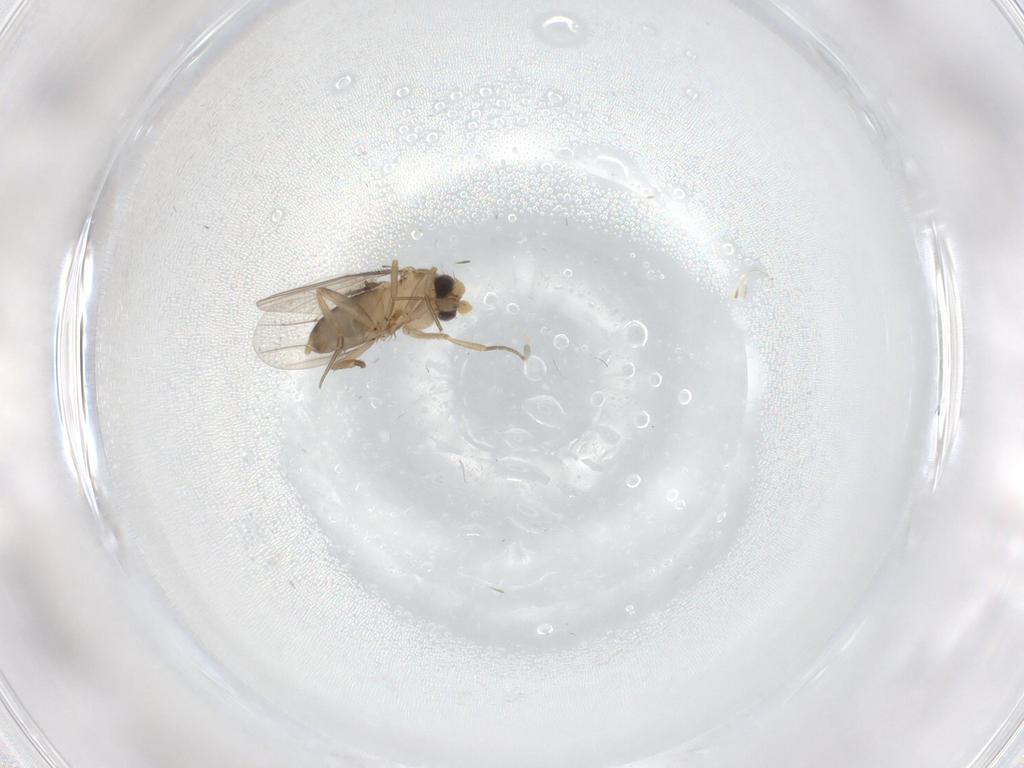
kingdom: Animalia
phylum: Arthropoda
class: Insecta
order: Diptera
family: Phoridae
